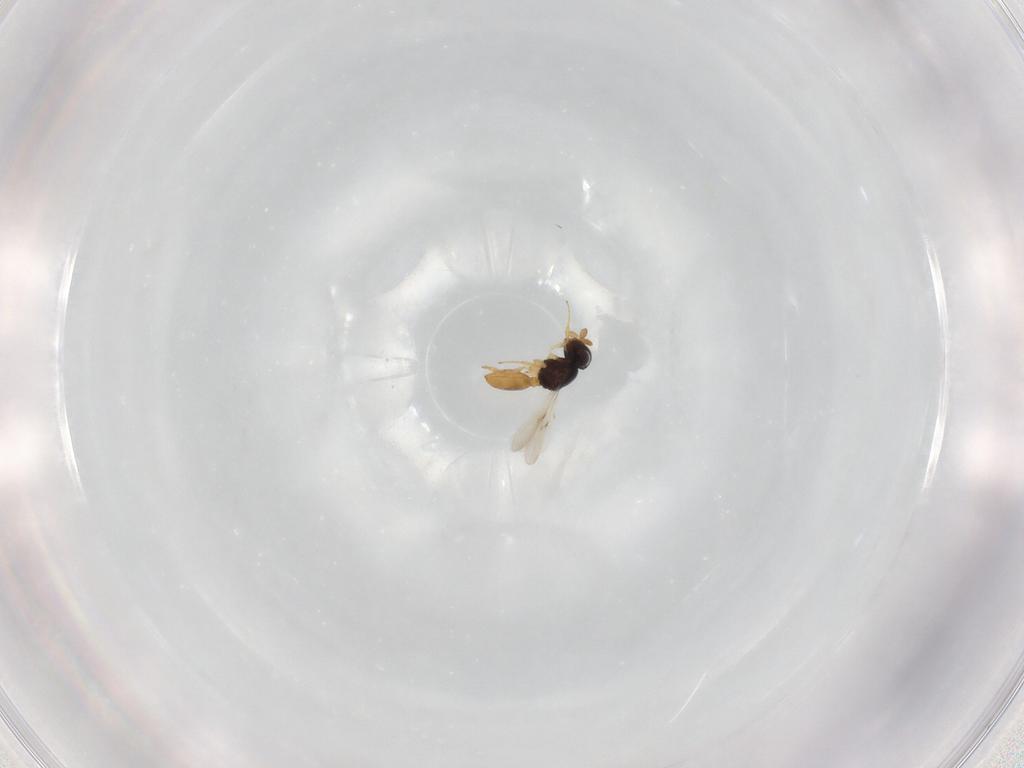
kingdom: Animalia
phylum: Arthropoda
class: Insecta
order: Hymenoptera
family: Scelionidae
